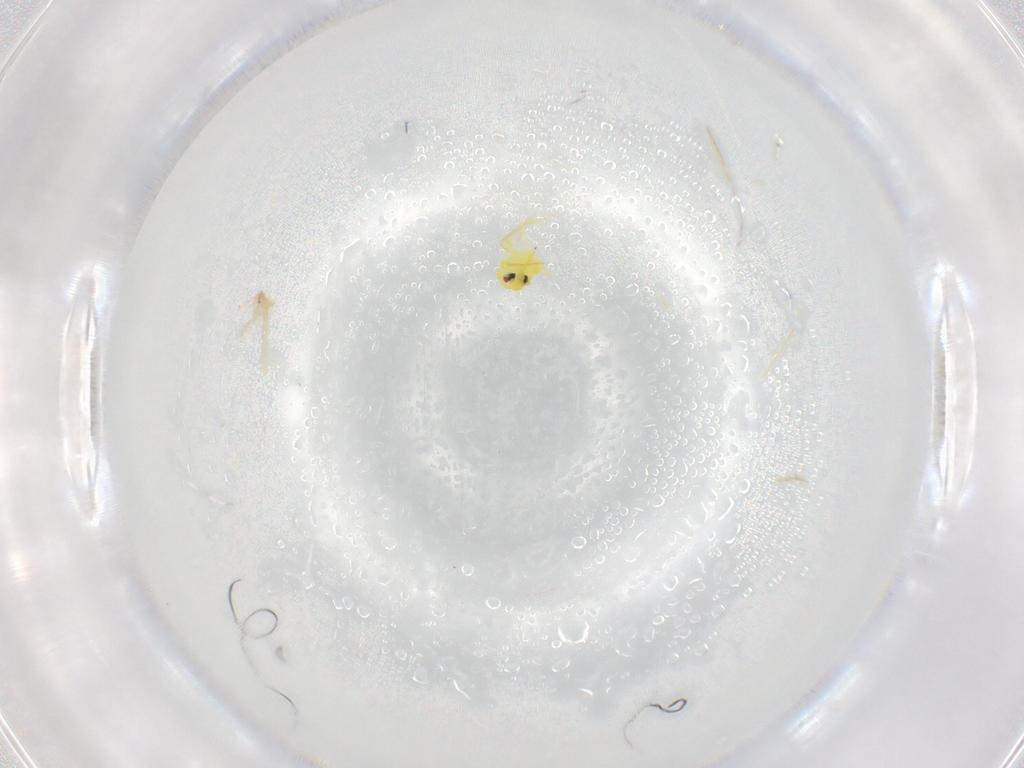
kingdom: Animalia
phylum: Arthropoda
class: Insecta
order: Hemiptera
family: Aleyrodidae
